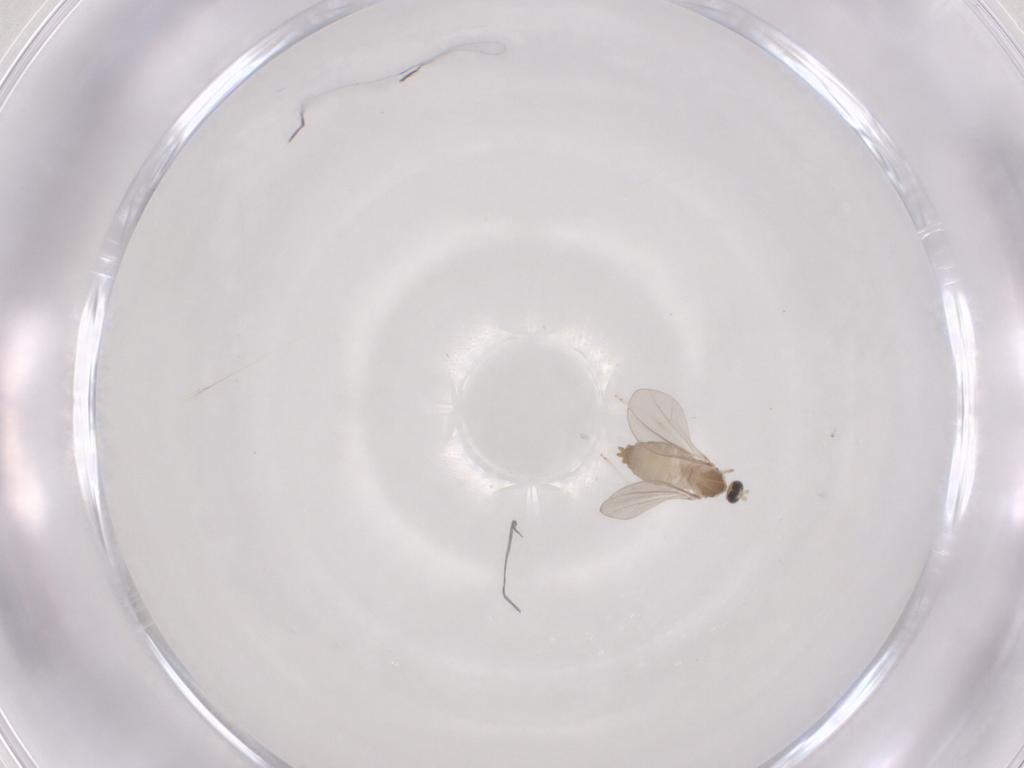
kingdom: Animalia
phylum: Arthropoda
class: Insecta
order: Diptera
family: Cecidomyiidae
